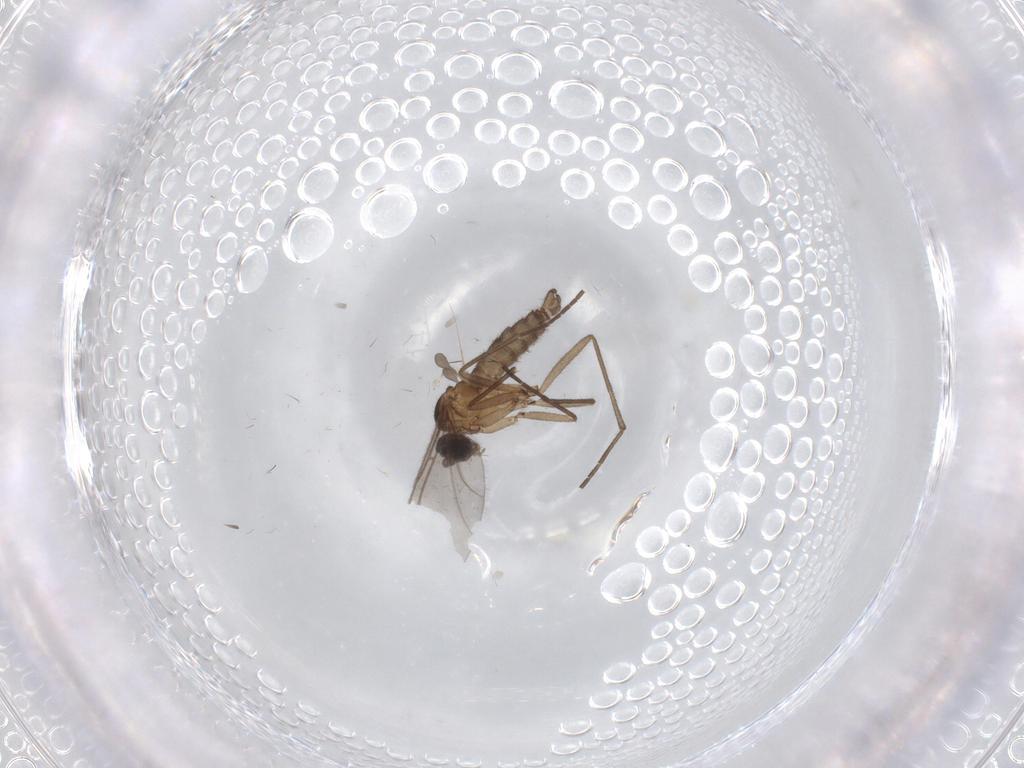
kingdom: Animalia
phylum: Arthropoda
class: Insecta
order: Diptera
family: Sciaridae
